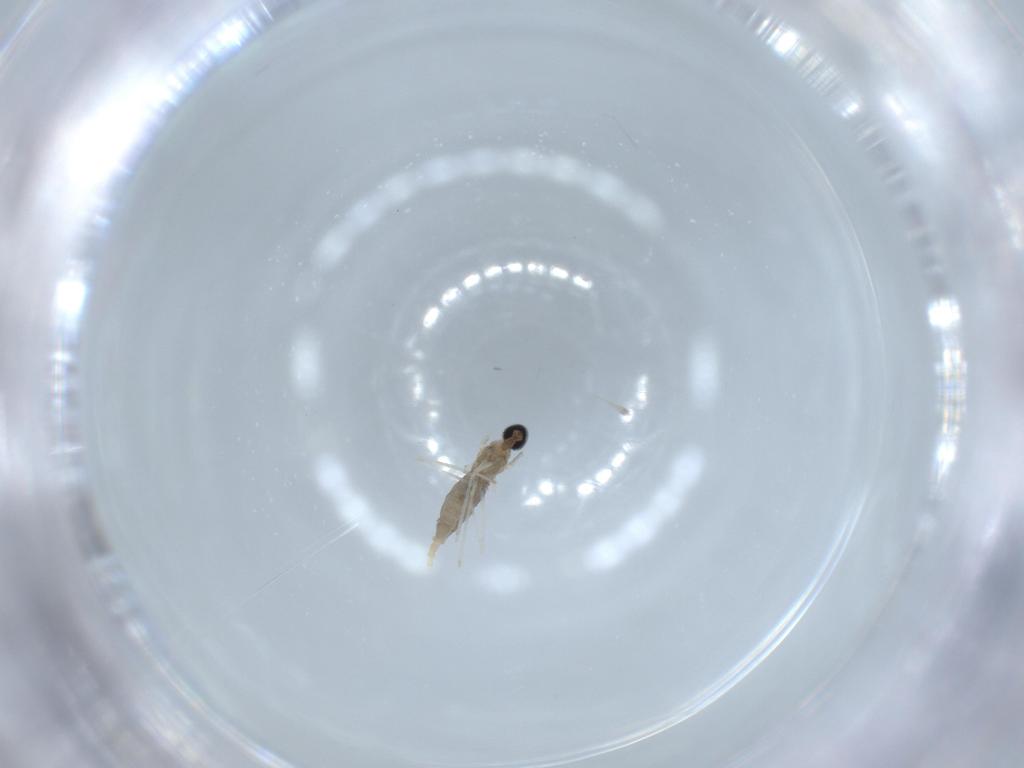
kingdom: Animalia
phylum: Arthropoda
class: Insecta
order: Diptera
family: Cecidomyiidae
